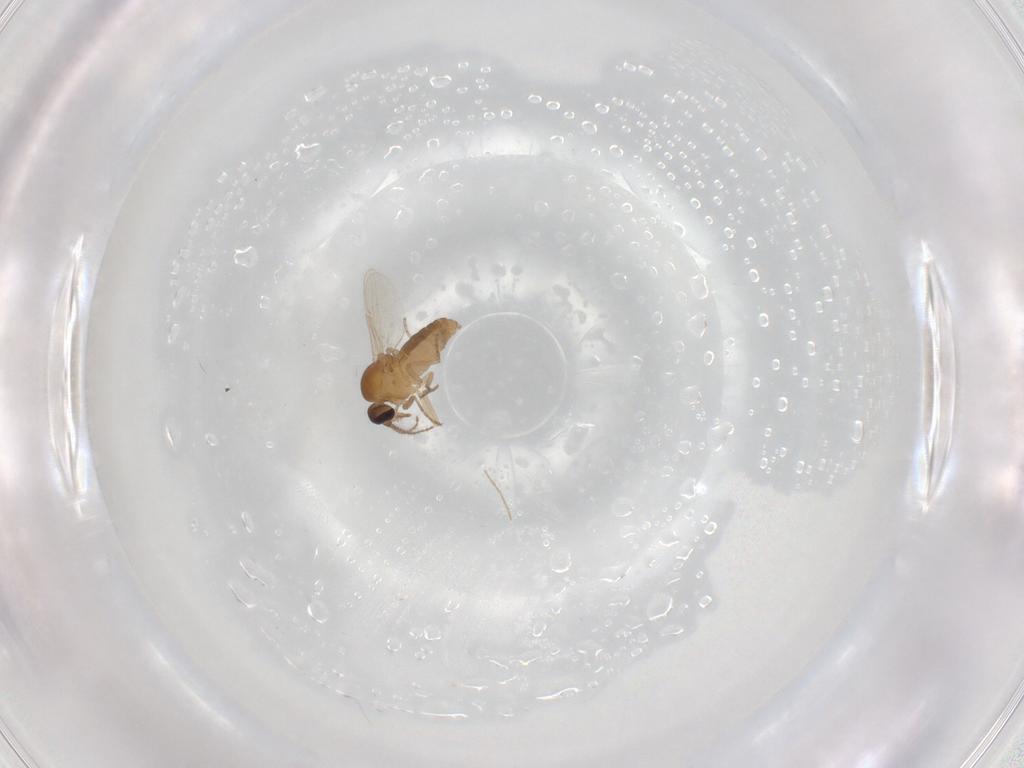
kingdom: Animalia
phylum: Arthropoda
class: Insecta
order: Diptera
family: Ceratopogonidae
